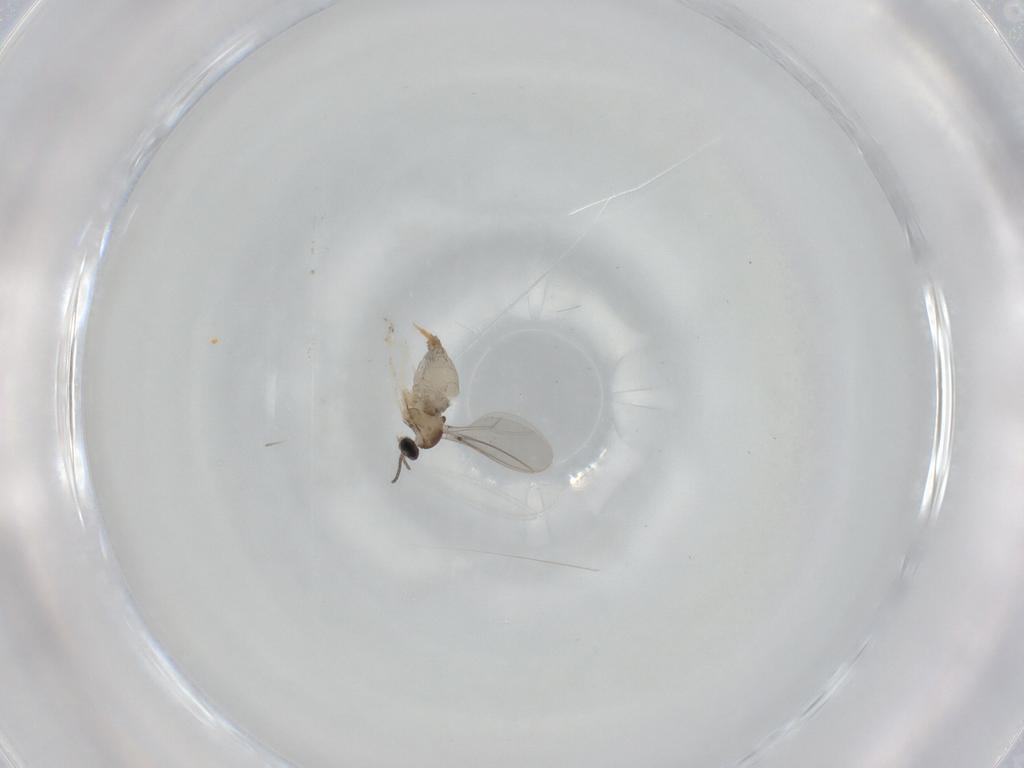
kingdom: Animalia
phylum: Arthropoda
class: Insecta
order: Diptera
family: Cecidomyiidae
